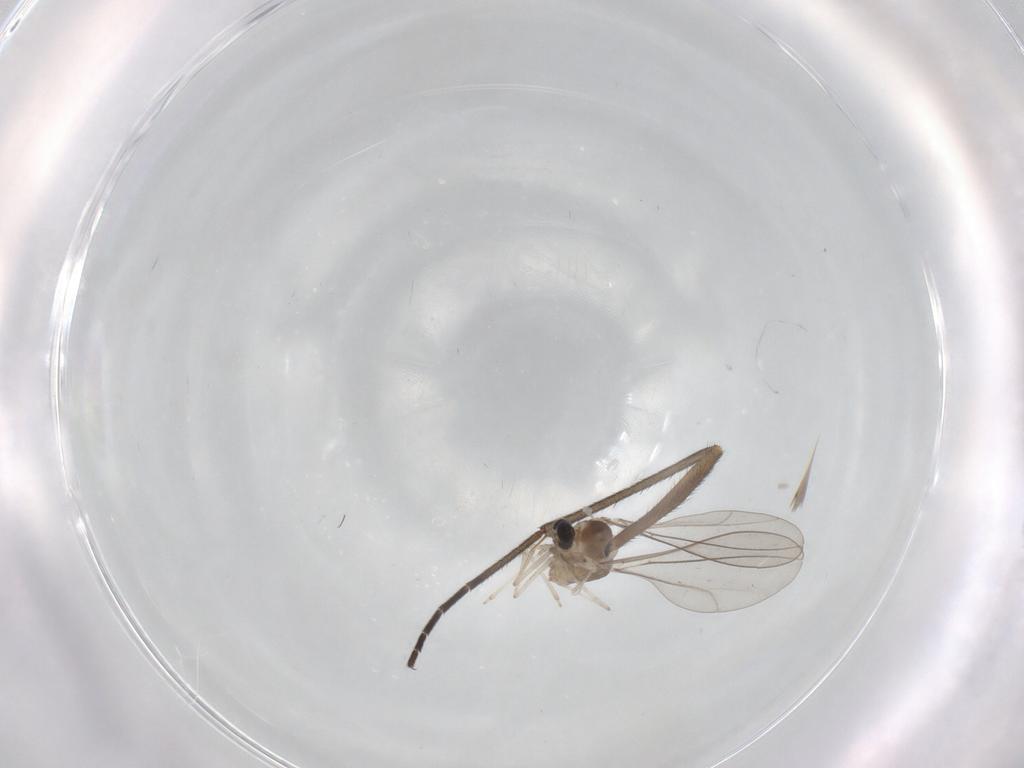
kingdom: Animalia
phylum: Arthropoda
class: Insecta
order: Diptera
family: Cecidomyiidae
